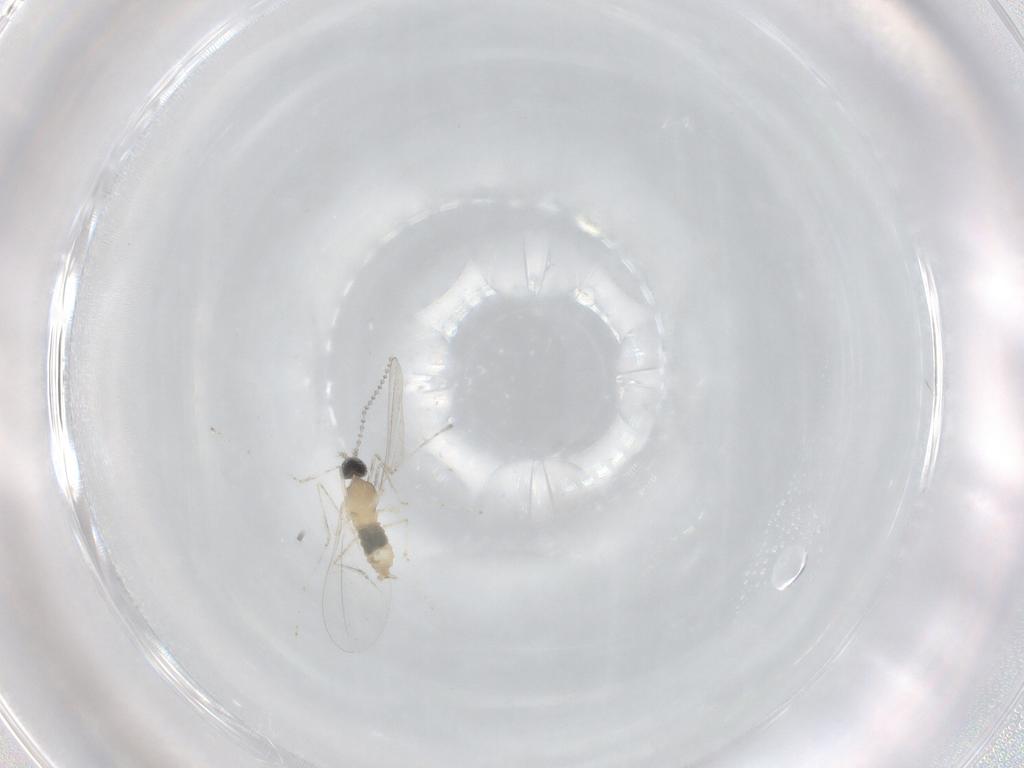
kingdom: Animalia
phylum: Arthropoda
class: Insecta
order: Diptera
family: Cecidomyiidae
